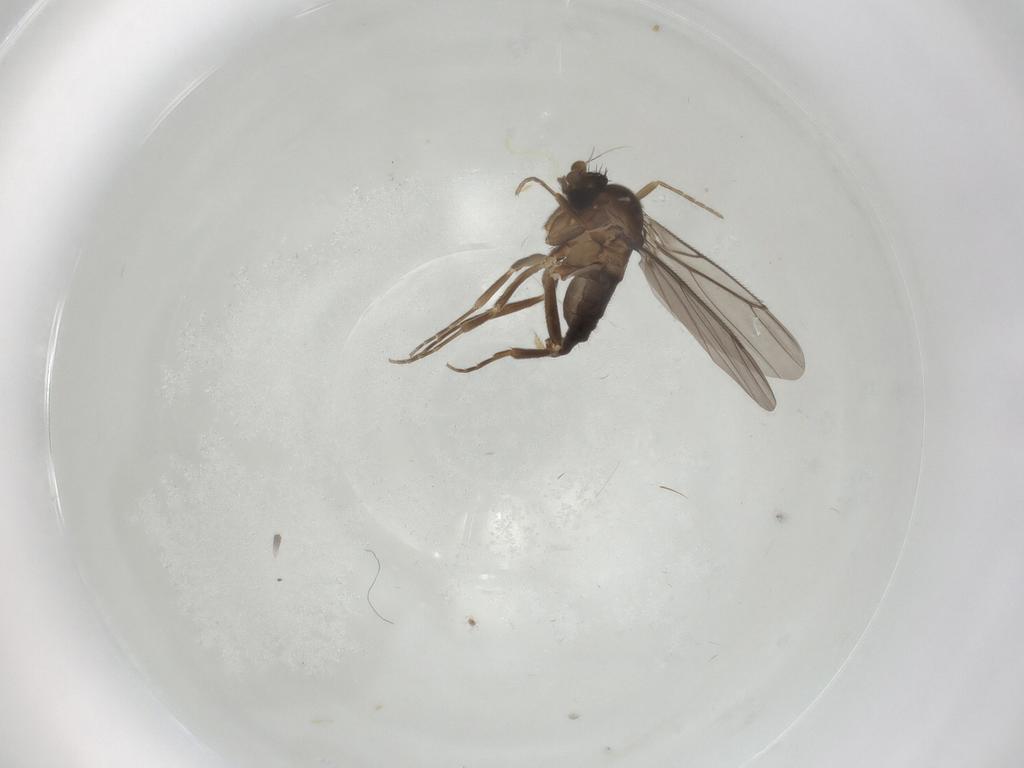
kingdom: Animalia
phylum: Arthropoda
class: Insecta
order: Diptera
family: Phoridae
